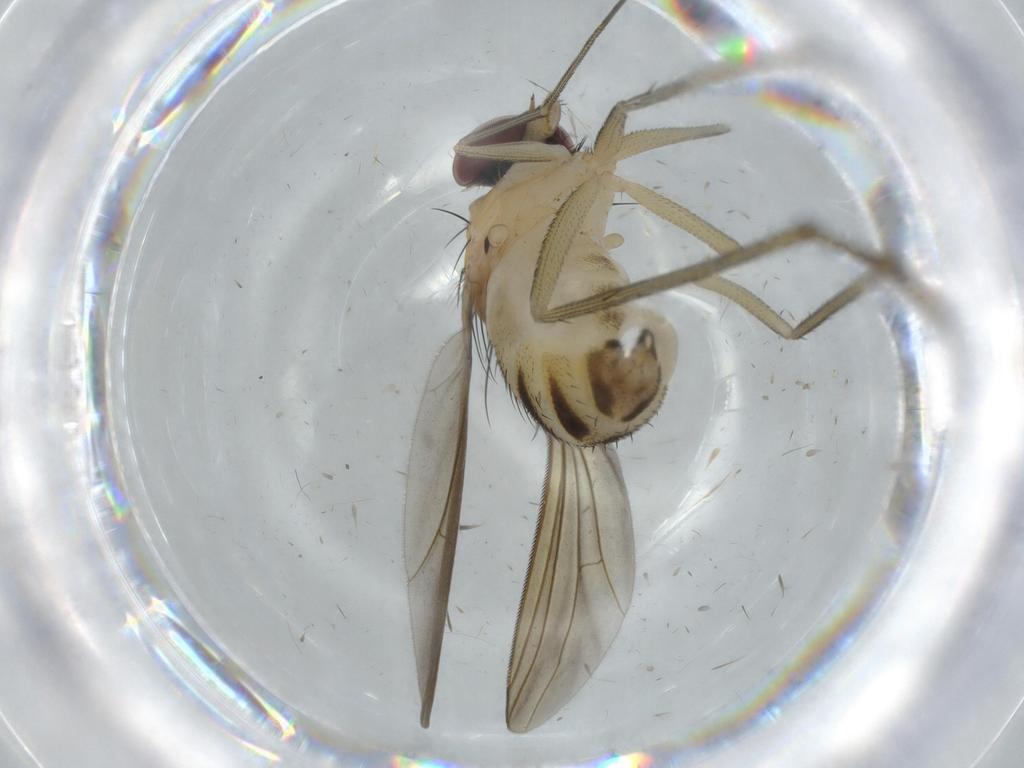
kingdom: Animalia
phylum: Arthropoda
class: Insecta
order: Diptera
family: Dolichopodidae
